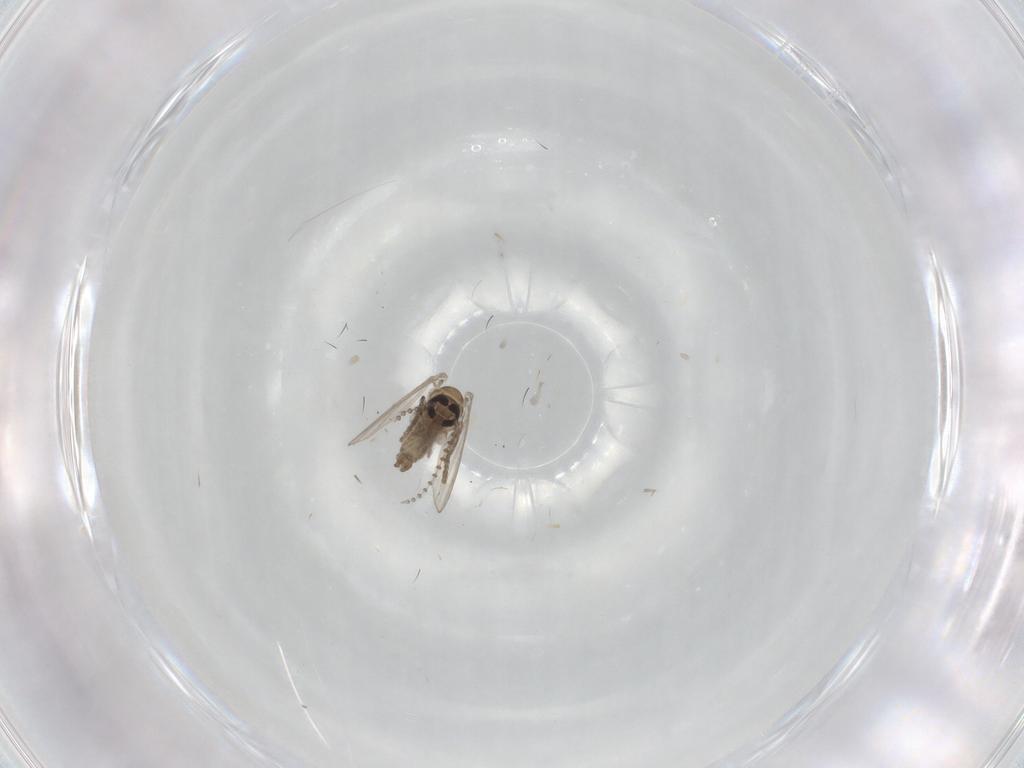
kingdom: Animalia
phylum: Arthropoda
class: Insecta
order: Diptera
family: Psychodidae
